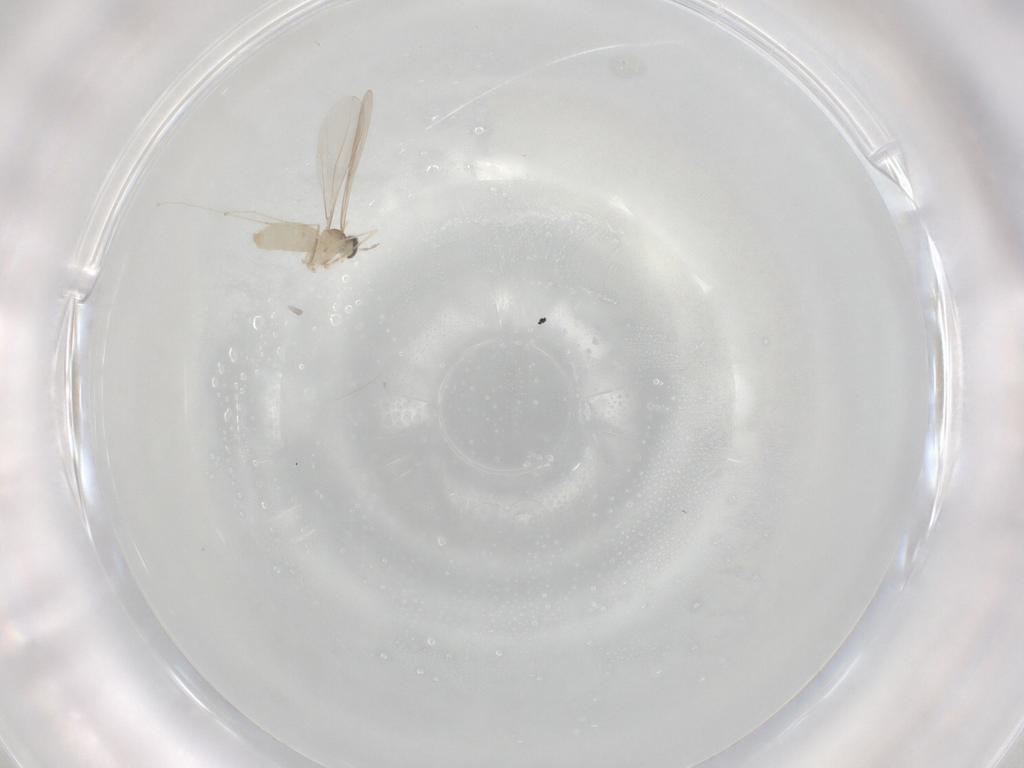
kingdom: Animalia
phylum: Arthropoda
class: Insecta
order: Diptera
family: Cecidomyiidae
